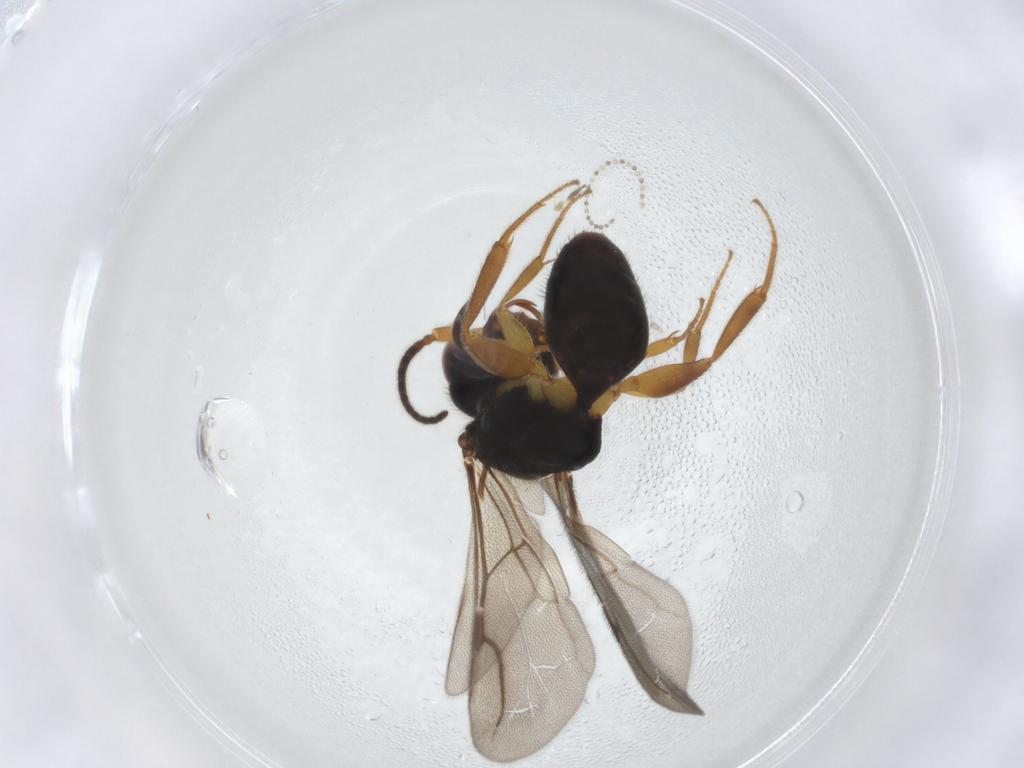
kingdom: Animalia
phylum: Arthropoda
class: Insecta
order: Hymenoptera
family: Bethylidae
